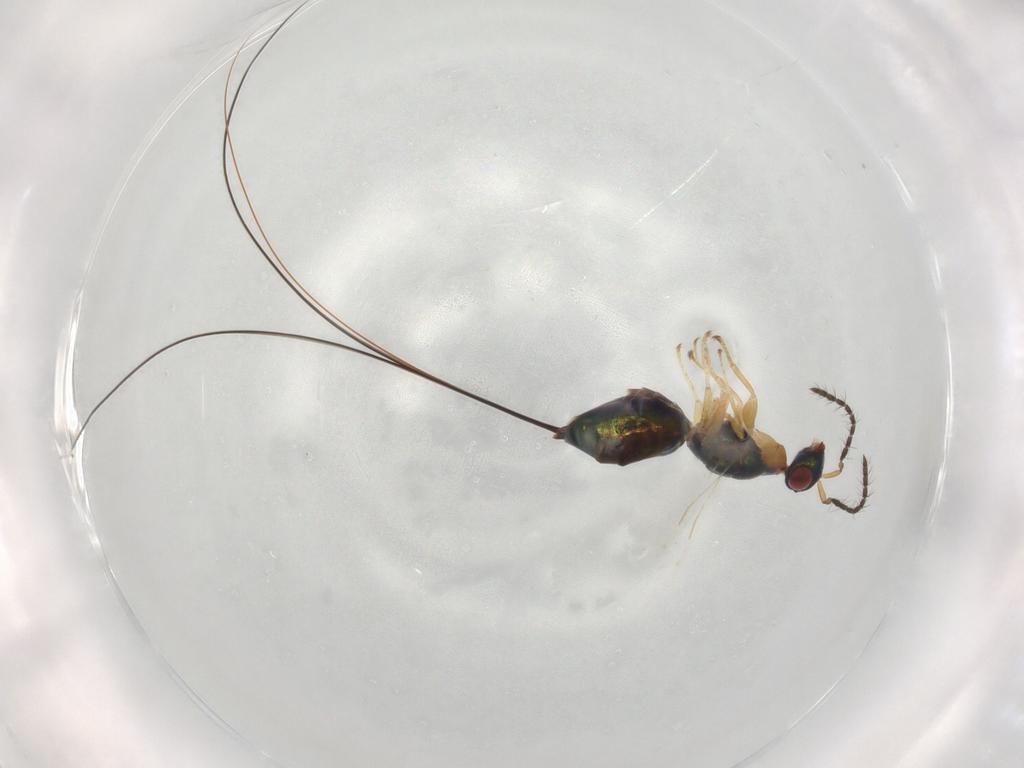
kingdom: Animalia
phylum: Arthropoda
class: Insecta
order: Hymenoptera
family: Pteromalidae
